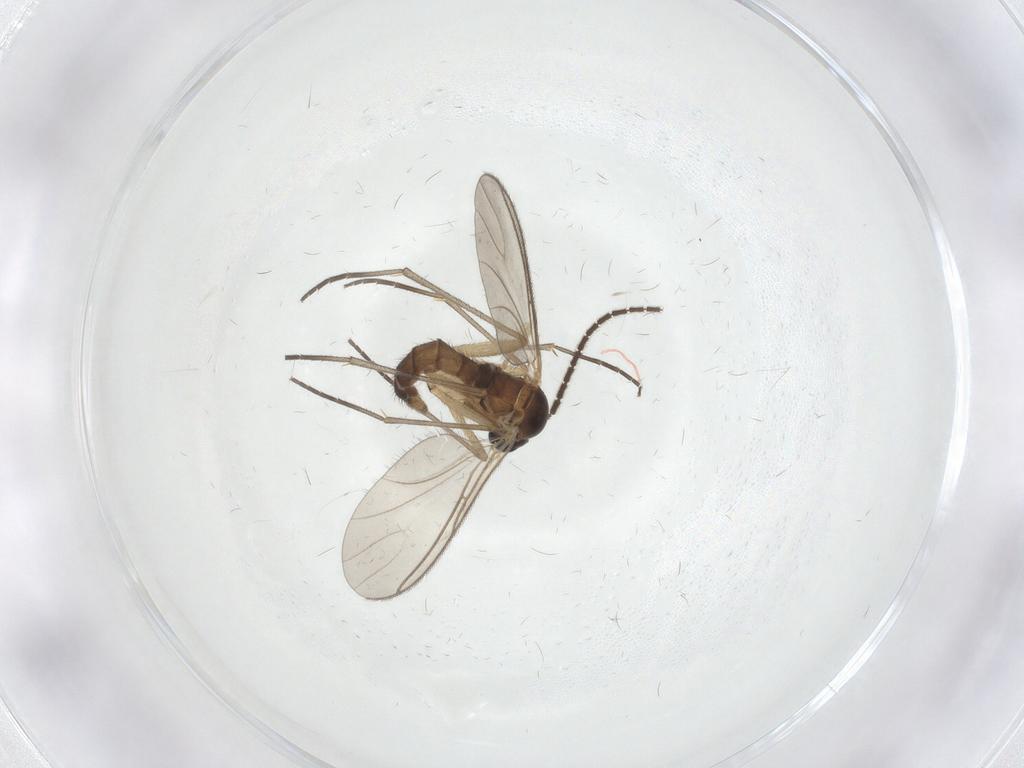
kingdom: Animalia
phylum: Arthropoda
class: Insecta
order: Diptera
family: Sciaridae
